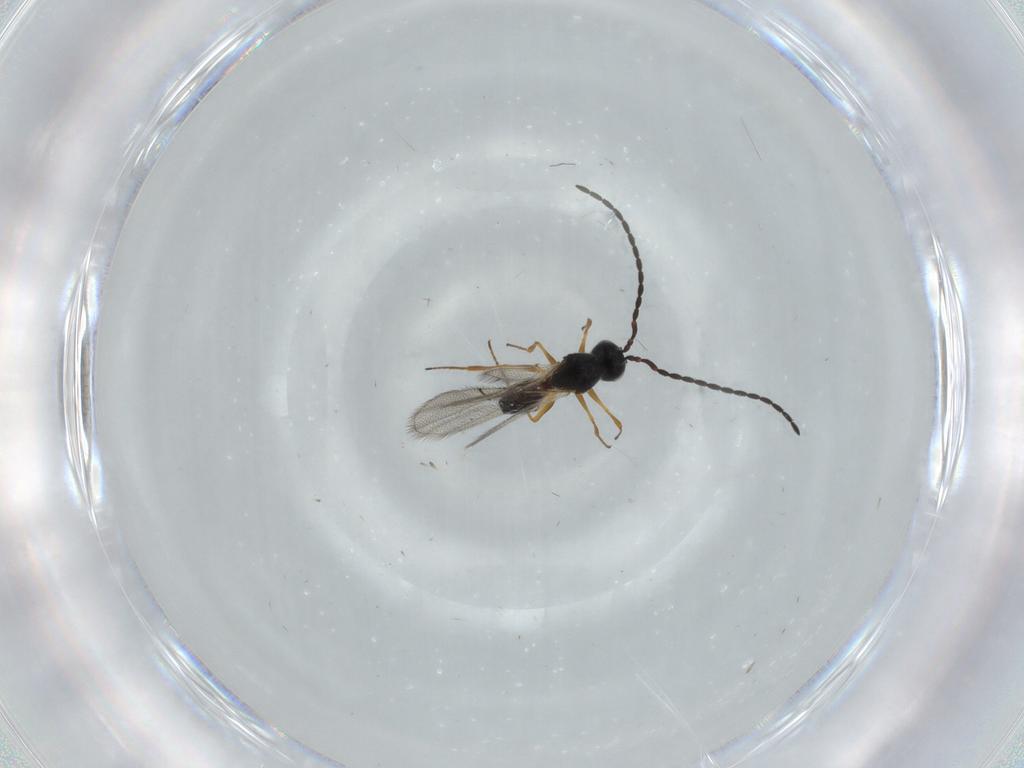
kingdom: Animalia
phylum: Arthropoda
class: Insecta
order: Hymenoptera
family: Figitidae
